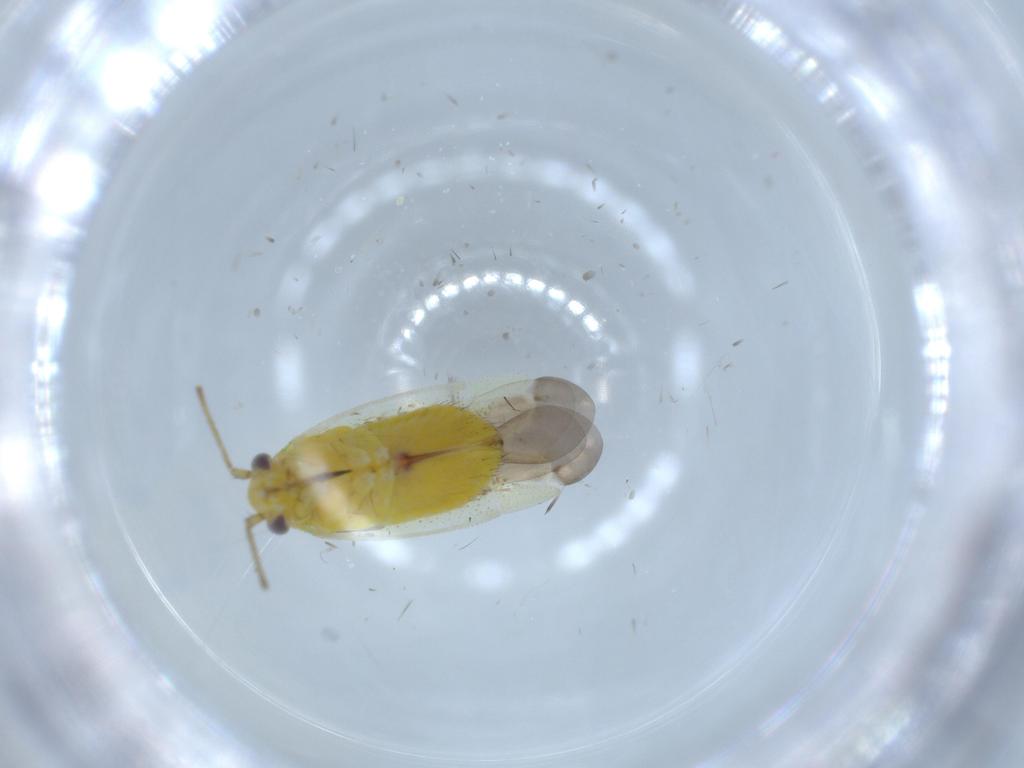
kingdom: Animalia
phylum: Arthropoda
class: Insecta
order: Hemiptera
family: Miridae
